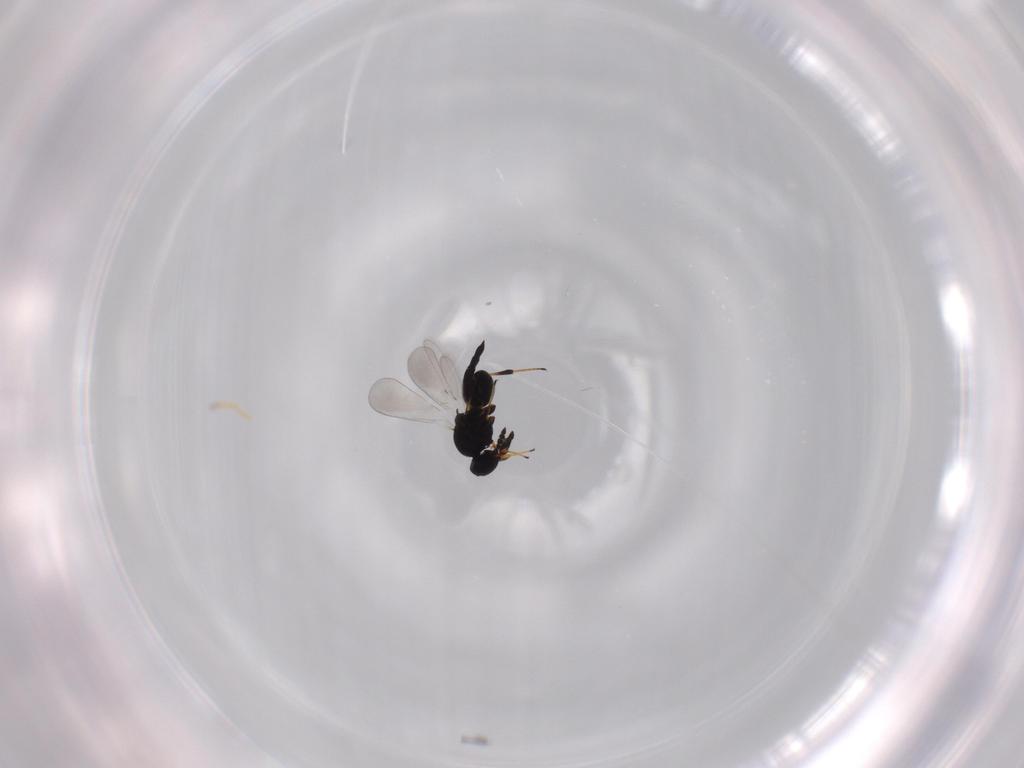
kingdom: Animalia
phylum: Arthropoda
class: Insecta
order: Hymenoptera
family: Platygastridae
